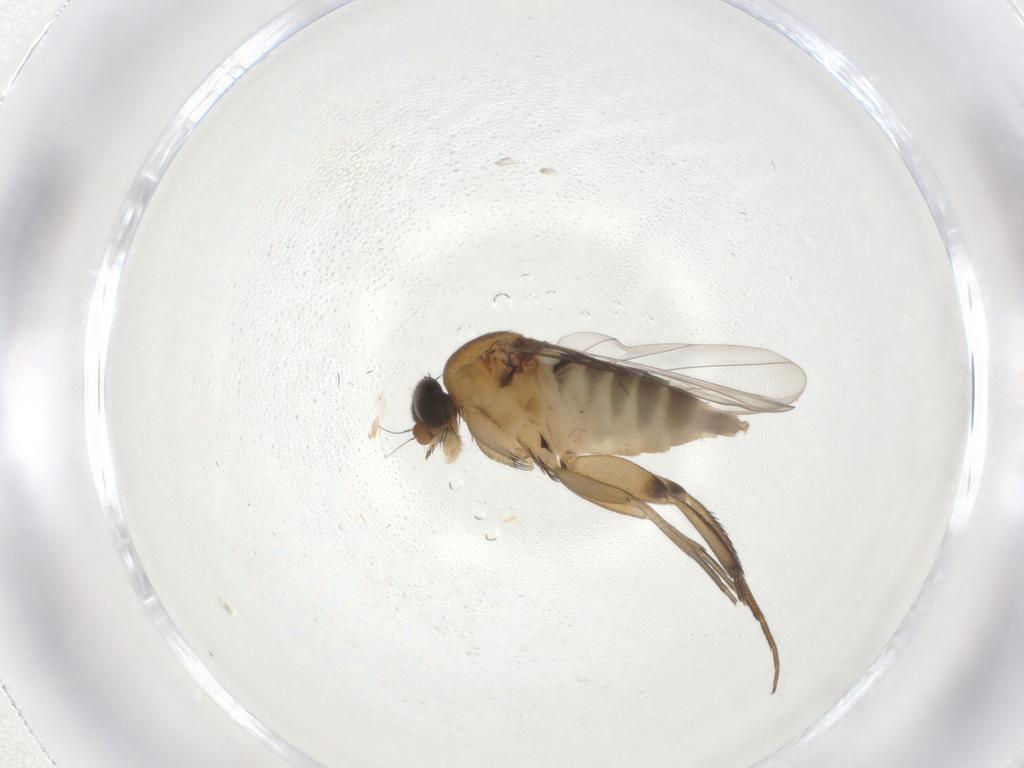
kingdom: Animalia
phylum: Arthropoda
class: Insecta
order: Diptera
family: Phoridae
